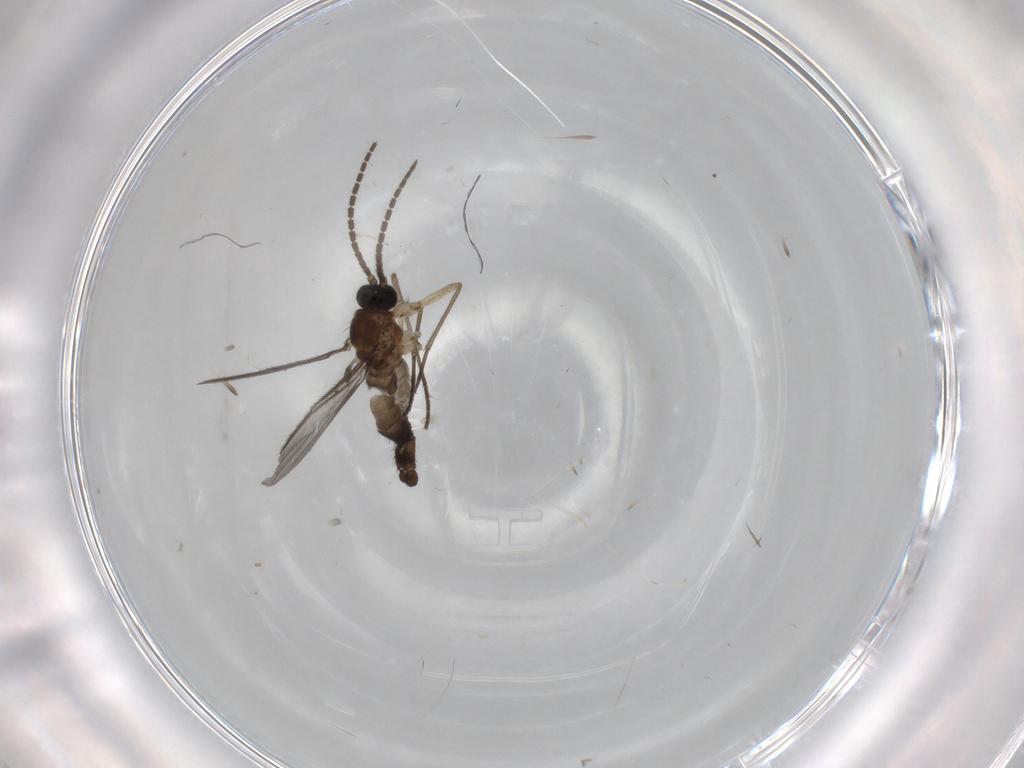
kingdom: Animalia
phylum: Arthropoda
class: Insecta
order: Diptera
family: Sciaridae
